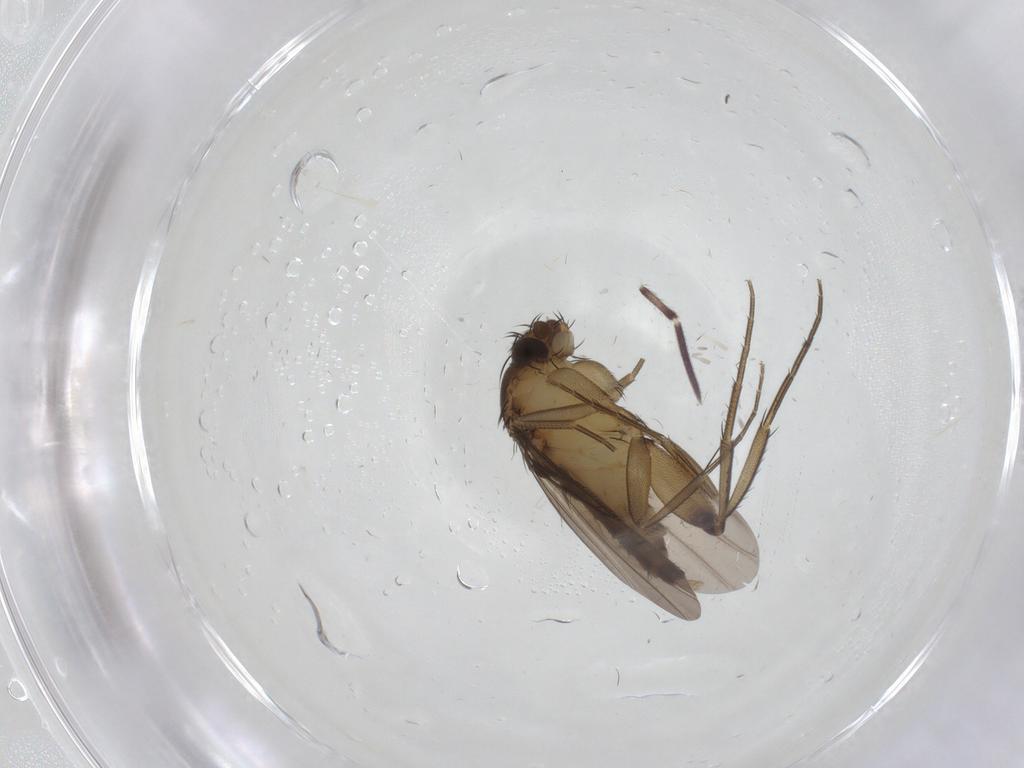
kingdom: Animalia
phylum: Arthropoda
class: Insecta
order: Diptera
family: Phoridae
